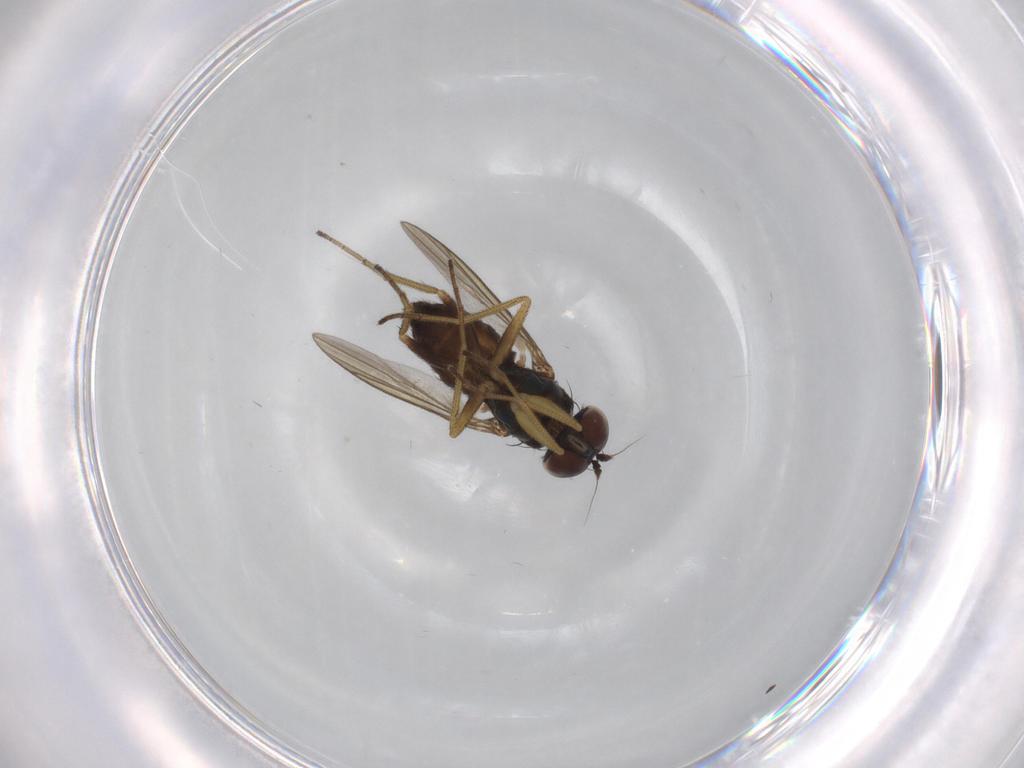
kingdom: Animalia
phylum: Arthropoda
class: Insecta
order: Diptera
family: Dolichopodidae
